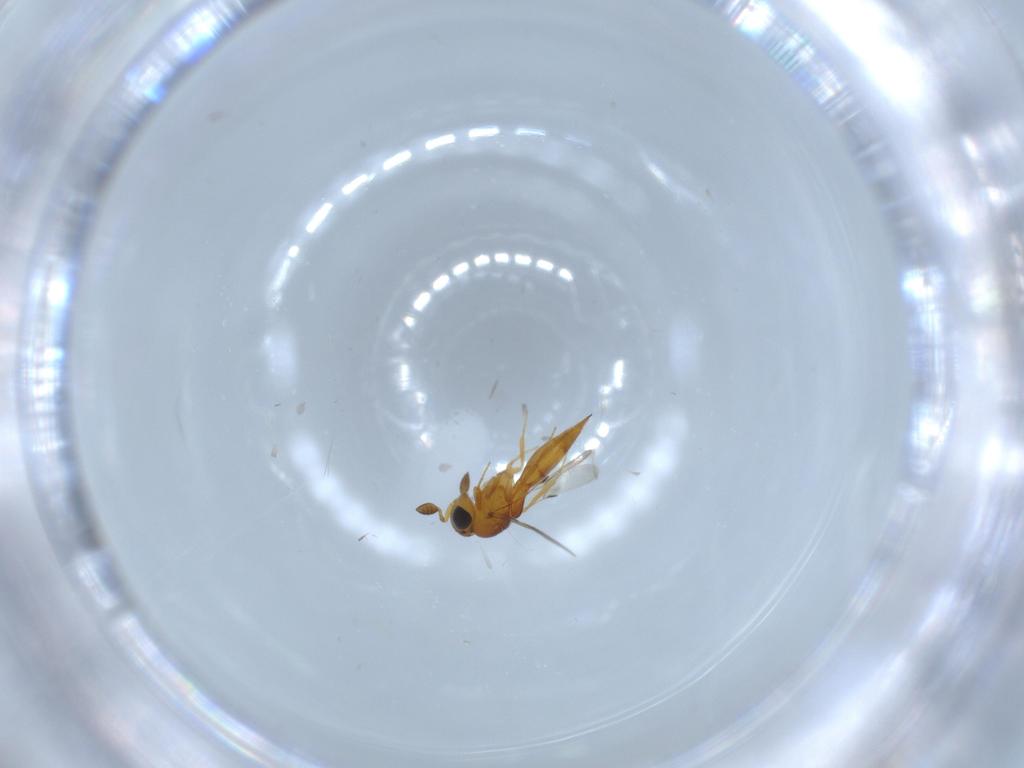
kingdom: Animalia
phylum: Arthropoda
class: Insecta
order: Hymenoptera
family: Scelionidae
